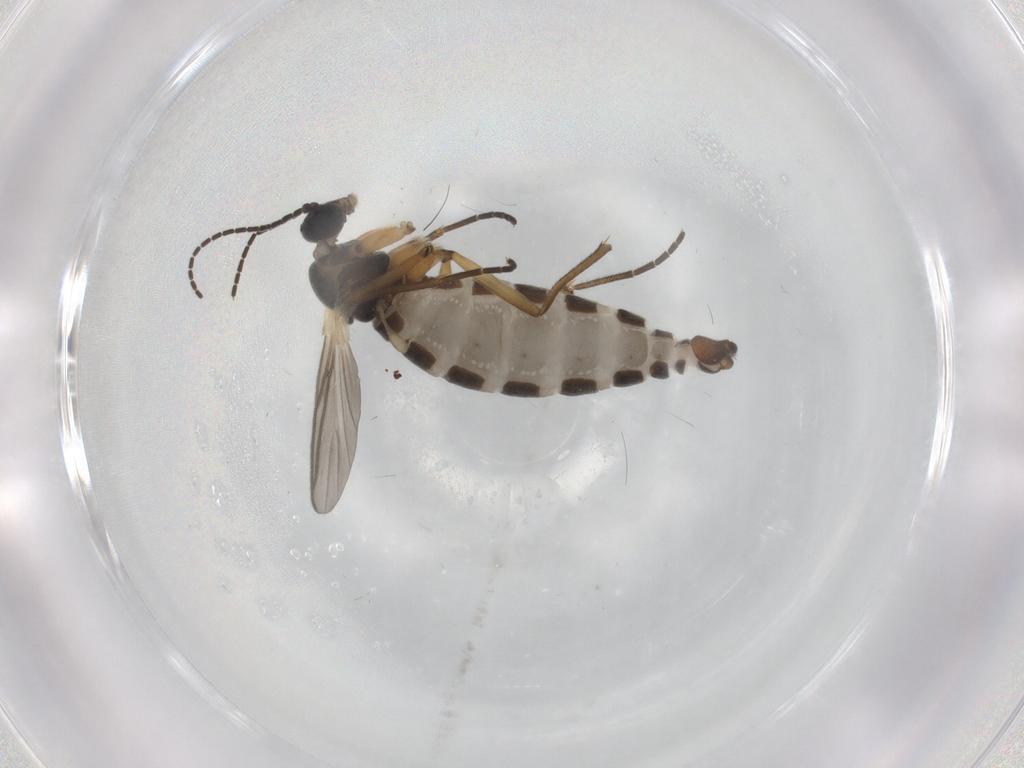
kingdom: Animalia
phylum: Arthropoda
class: Insecta
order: Diptera
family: Sciaridae
